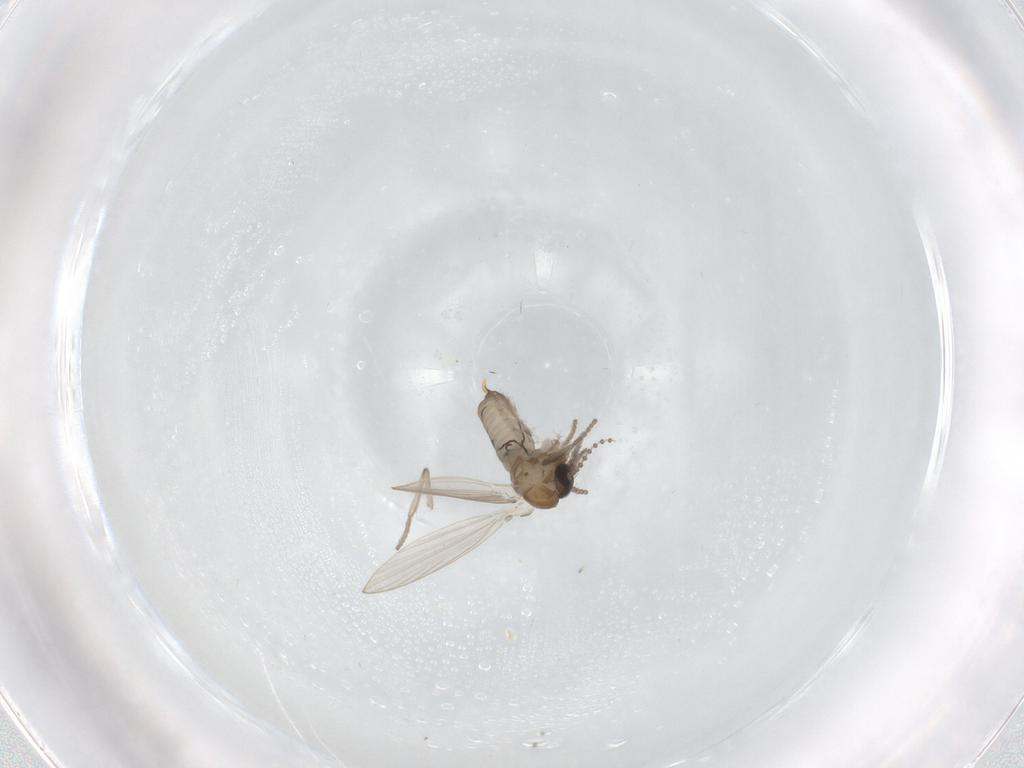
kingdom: Animalia
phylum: Arthropoda
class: Insecta
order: Diptera
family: Psychodidae
